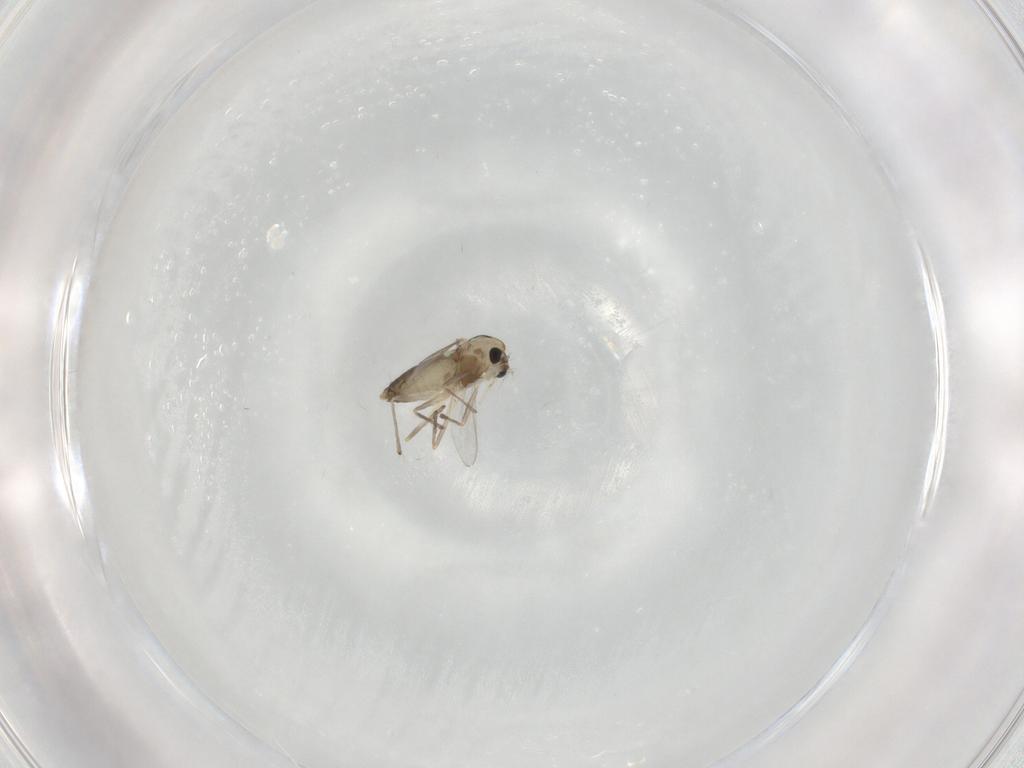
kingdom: Animalia
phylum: Arthropoda
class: Insecta
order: Diptera
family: Chironomidae
